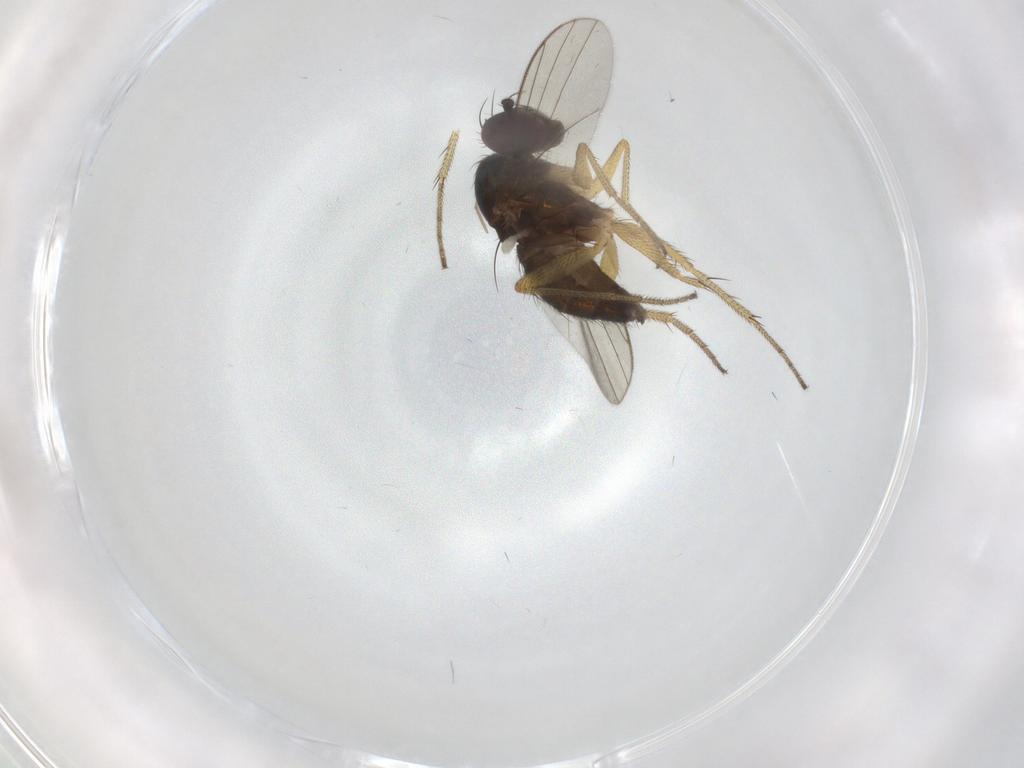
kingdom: Animalia
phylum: Arthropoda
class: Insecta
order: Diptera
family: Dolichopodidae
